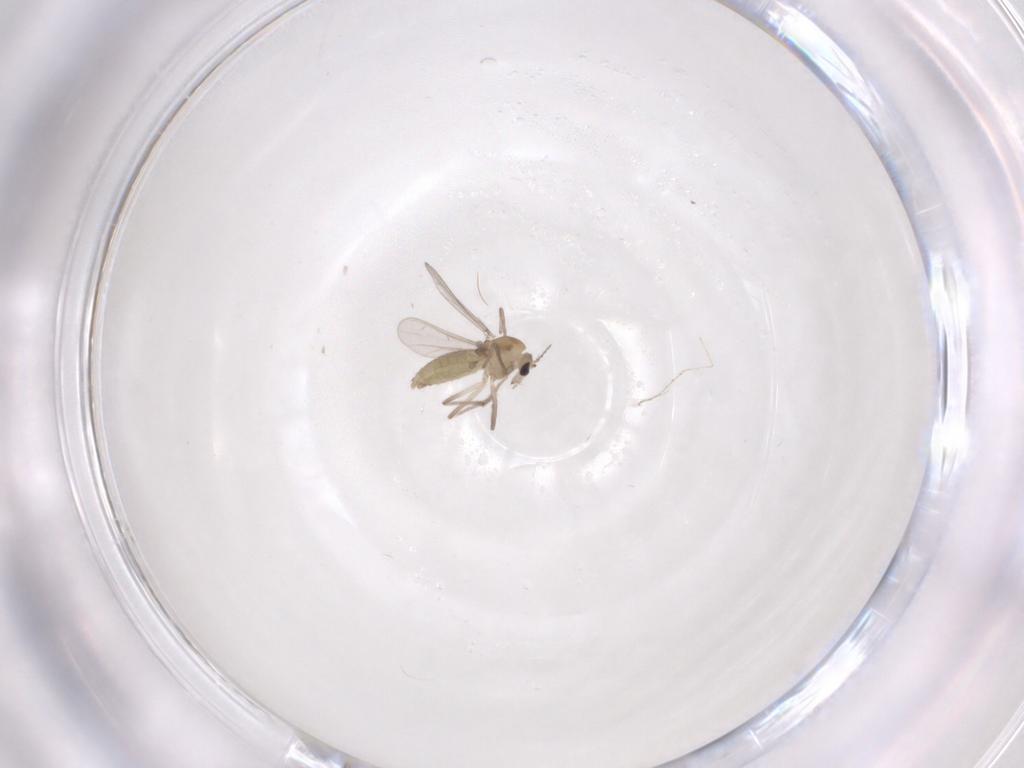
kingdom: Animalia
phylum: Arthropoda
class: Insecta
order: Diptera
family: Chironomidae
